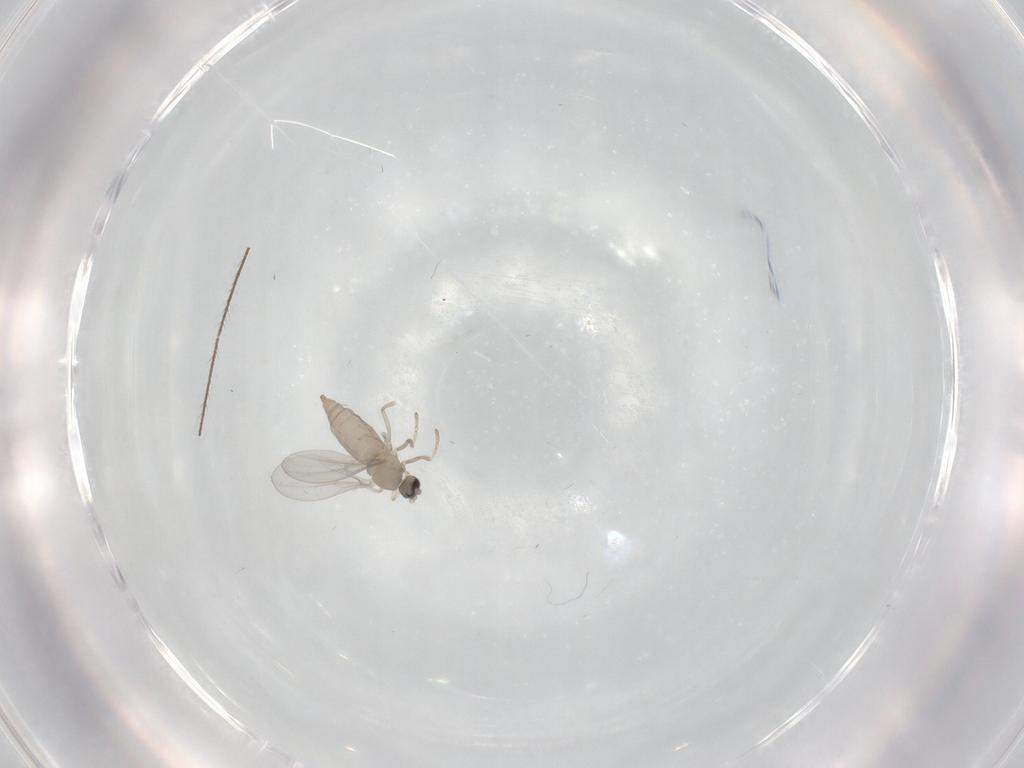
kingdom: Animalia
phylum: Arthropoda
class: Insecta
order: Diptera
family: Cecidomyiidae
